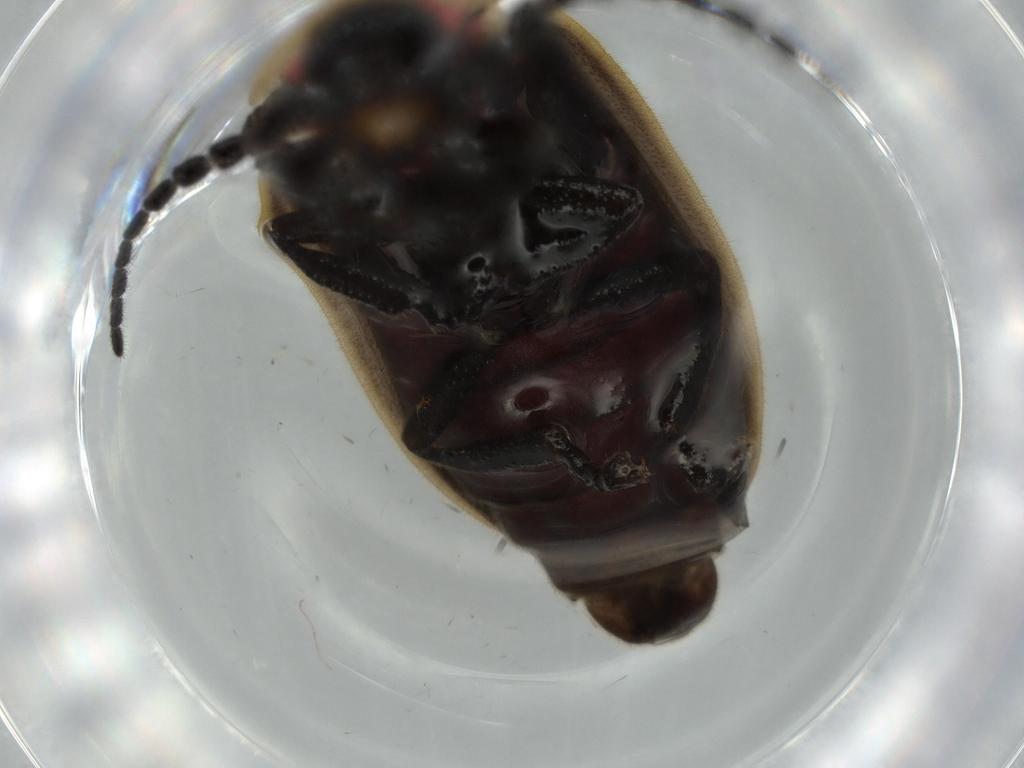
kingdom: Animalia
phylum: Arthropoda
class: Insecta
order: Coleoptera
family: Lampyridae
